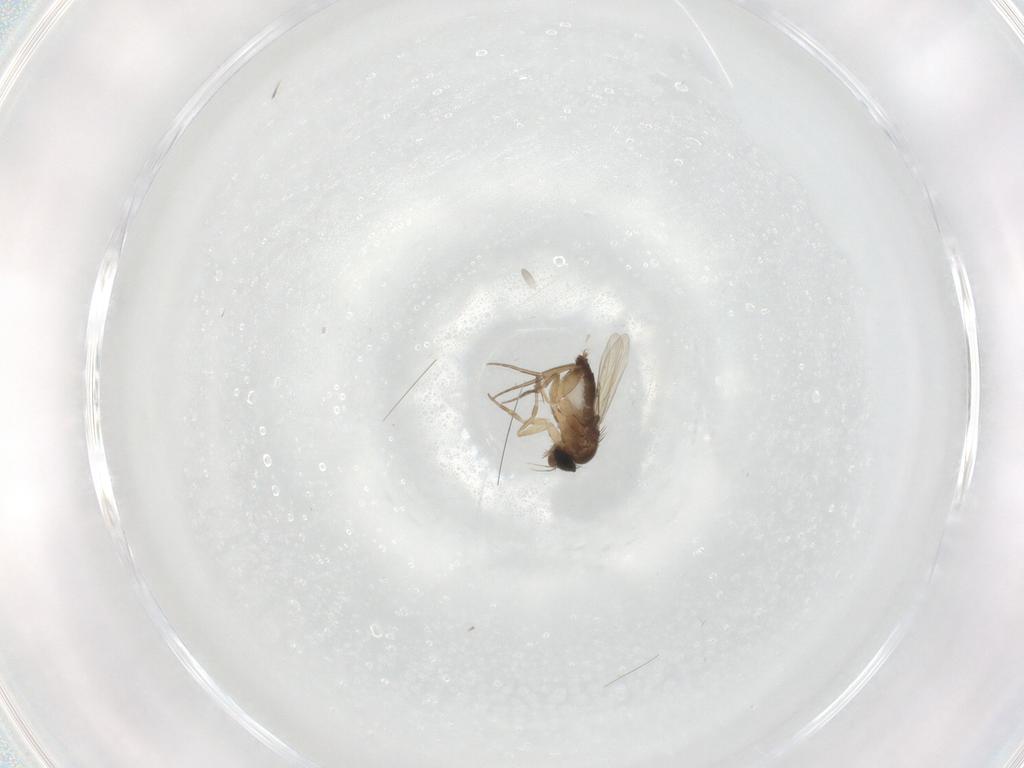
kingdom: Animalia
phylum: Arthropoda
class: Insecta
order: Diptera
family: Phoridae
